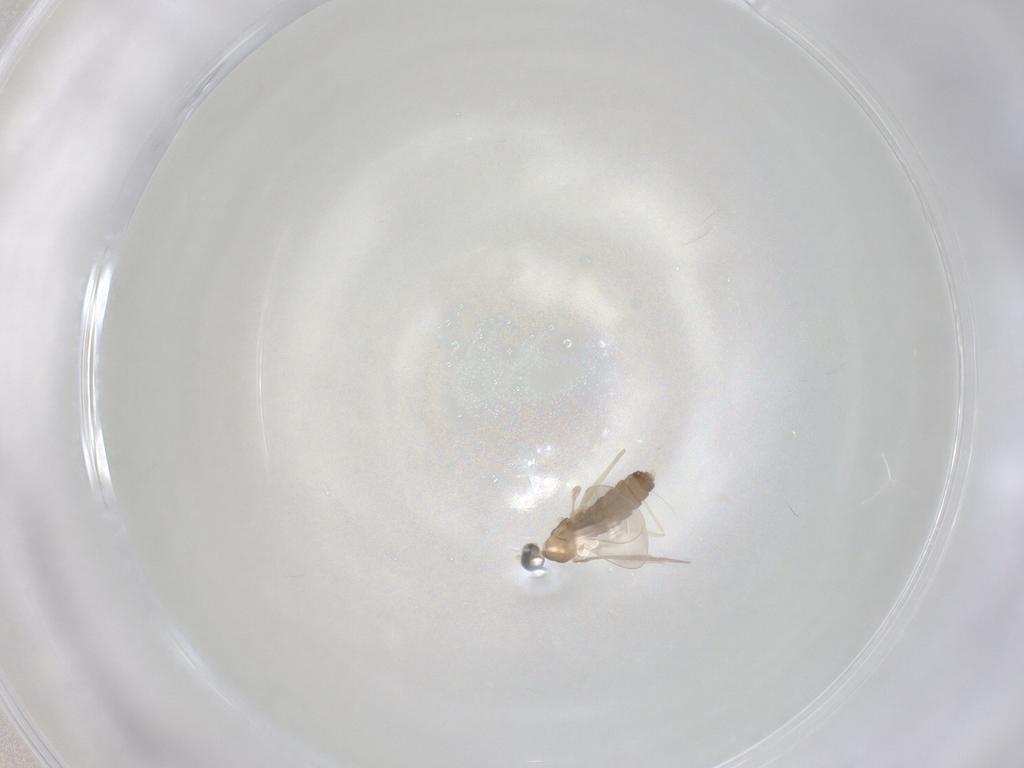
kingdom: Animalia
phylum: Arthropoda
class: Insecta
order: Diptera
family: Cecidomyiidae
